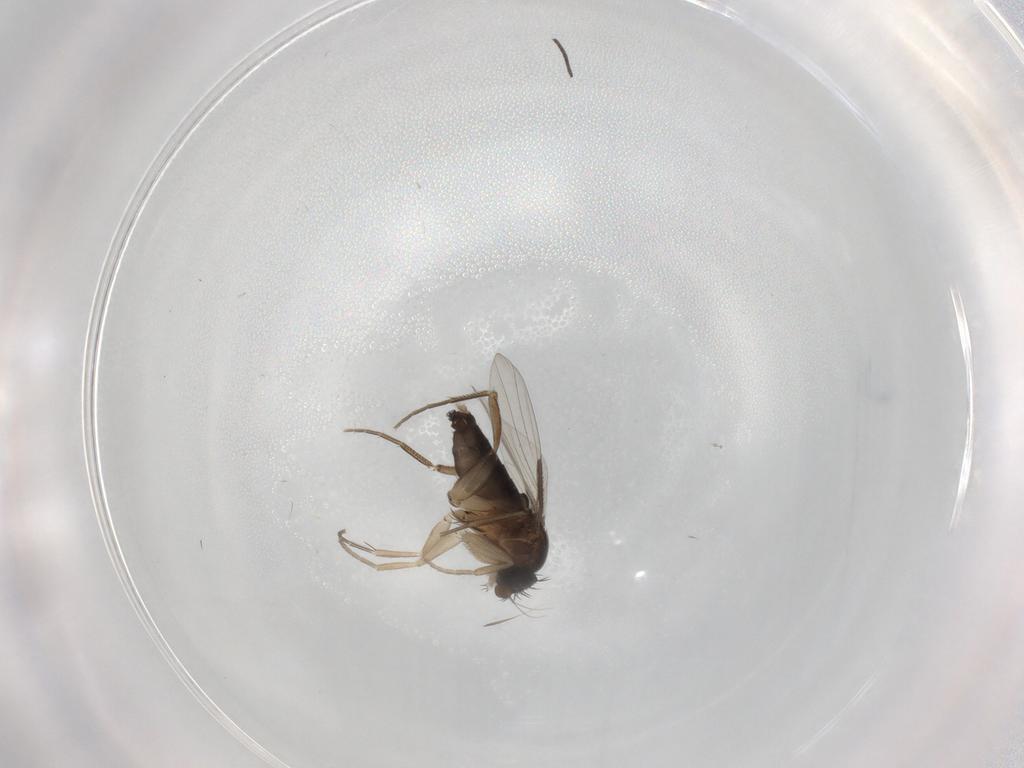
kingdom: Animalia
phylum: Arthropoda
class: Insecta
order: Diptera
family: Phoridae
